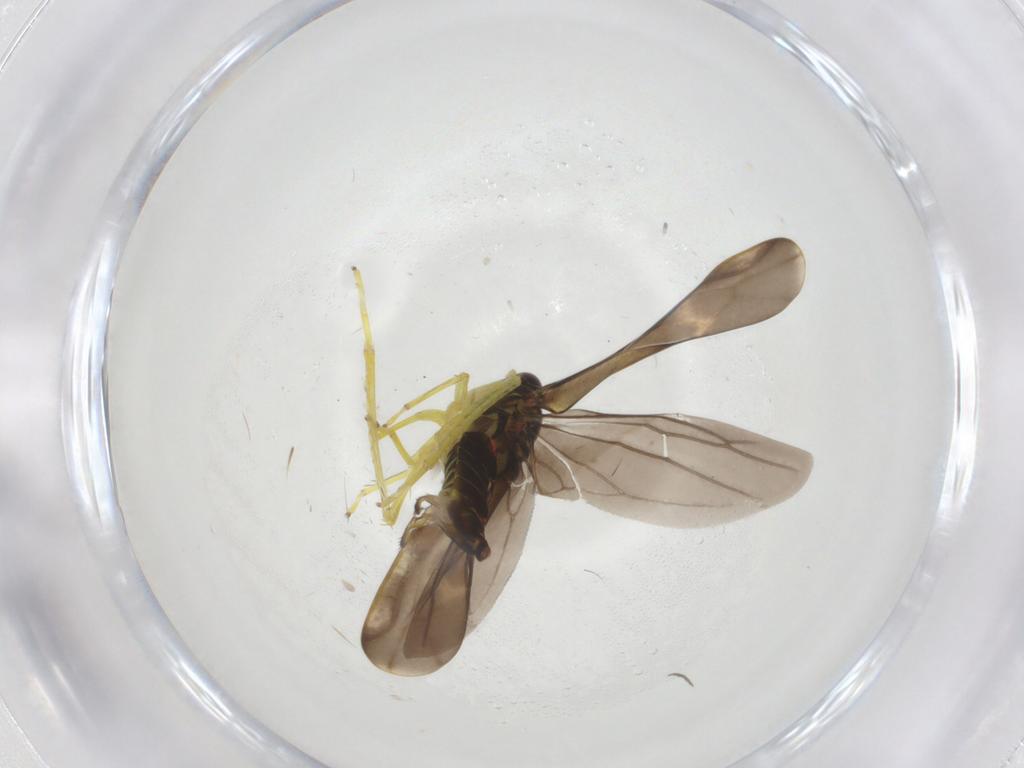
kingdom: Animalia
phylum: Arthropoda
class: Insecta
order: Hemiptera
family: Cicadellidae
